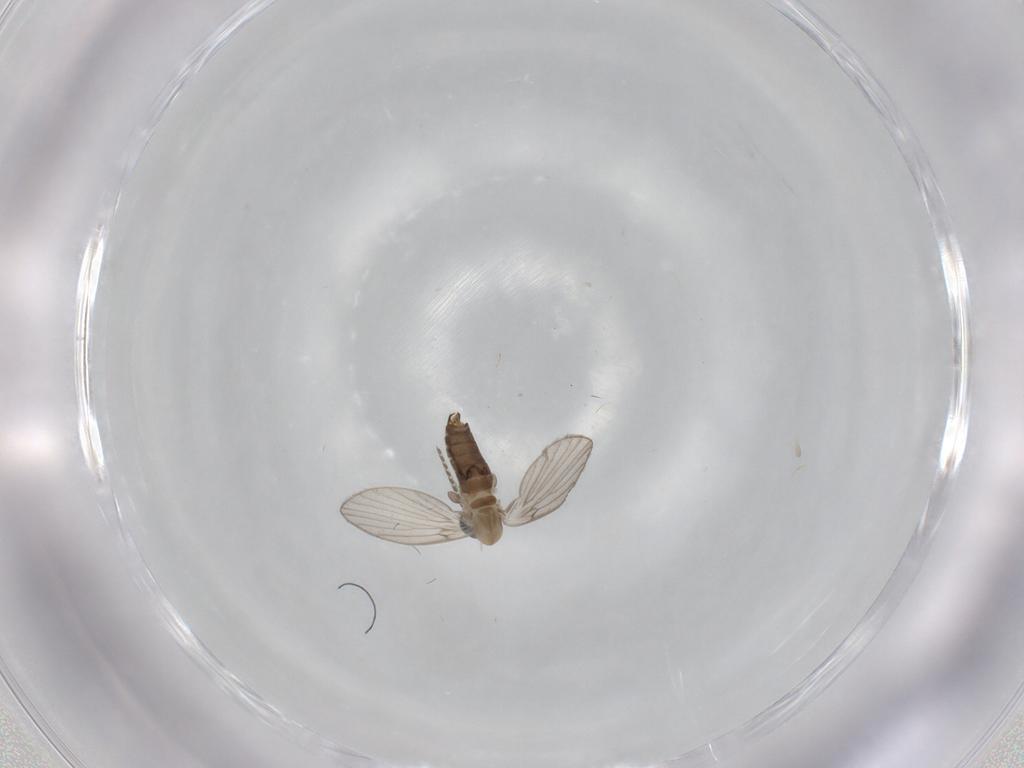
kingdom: Animalia
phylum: Arthropoda
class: Insecta
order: Diptera
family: Psychodidae
